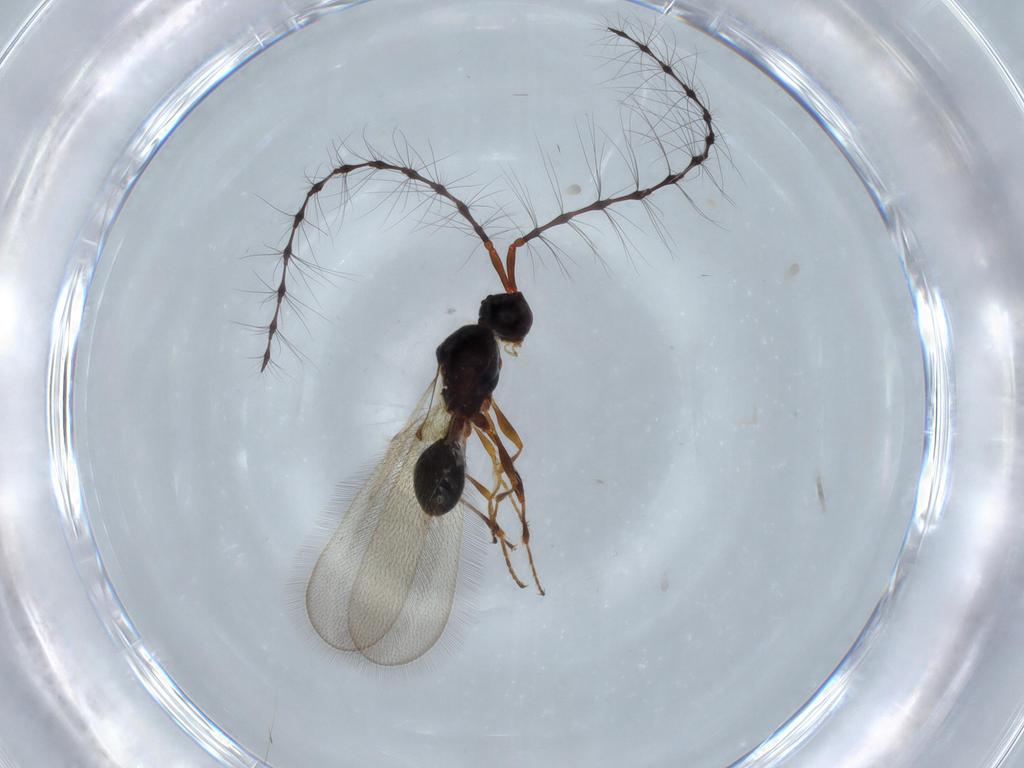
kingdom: Animalia
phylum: Arthropoda
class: Insecta
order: Hymenoptera
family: Diapriidae
